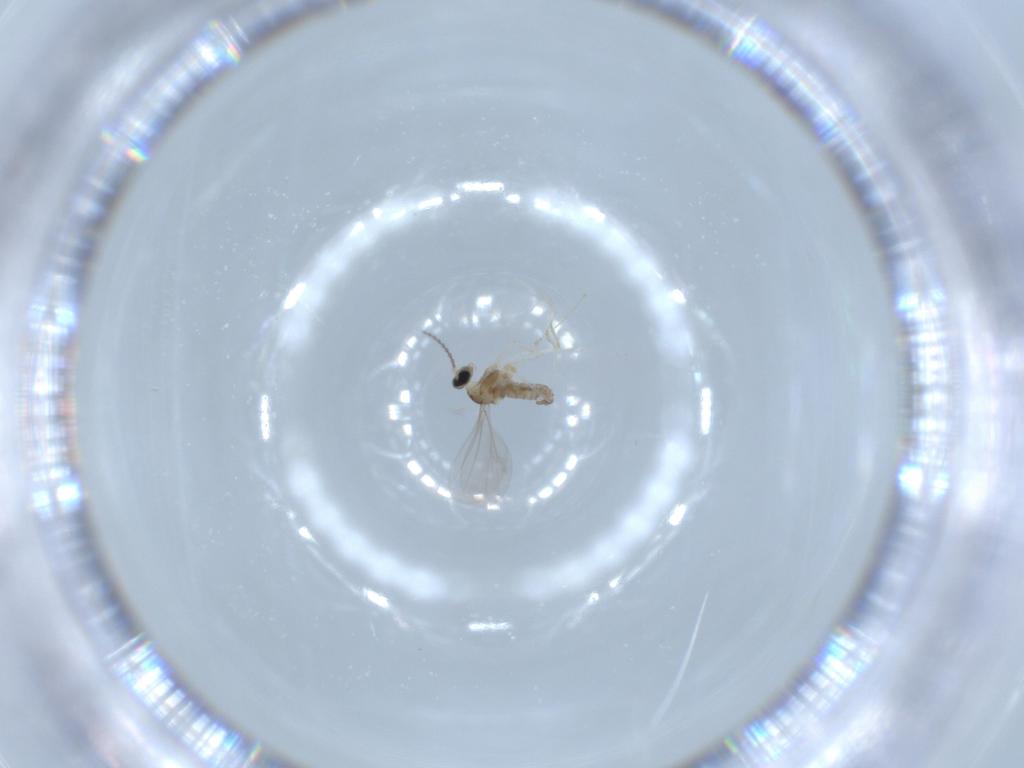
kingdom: Animalia
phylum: Arthropoda
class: Insecta
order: Diptera
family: Cecidomyiidae
